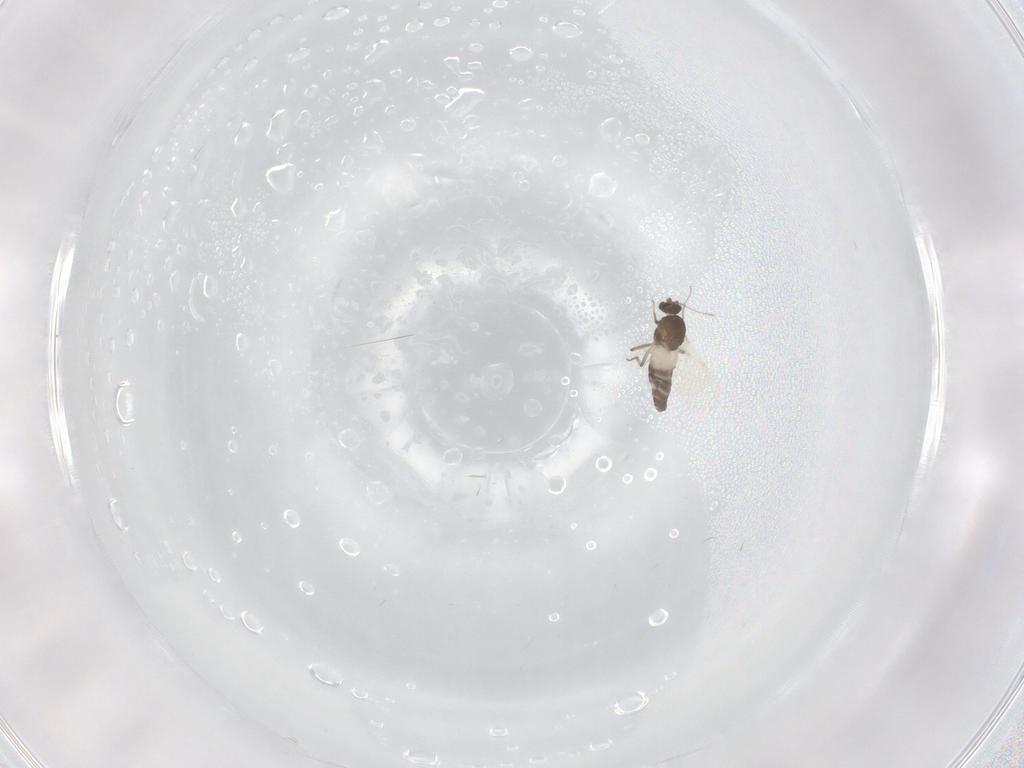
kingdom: Animalia
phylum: Arthropoda
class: Insecta
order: Diptera
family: Ceratopogonidae
